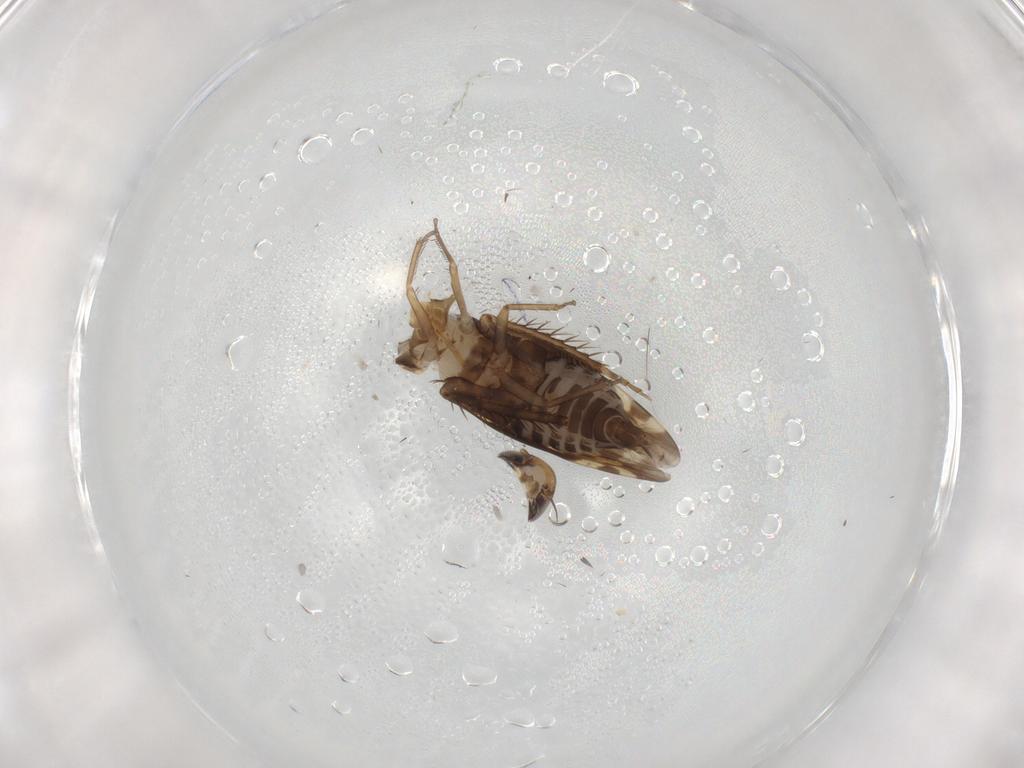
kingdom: Animalia
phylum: Arthropoda
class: Insecta
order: Hemiptera
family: Cicadellidae
